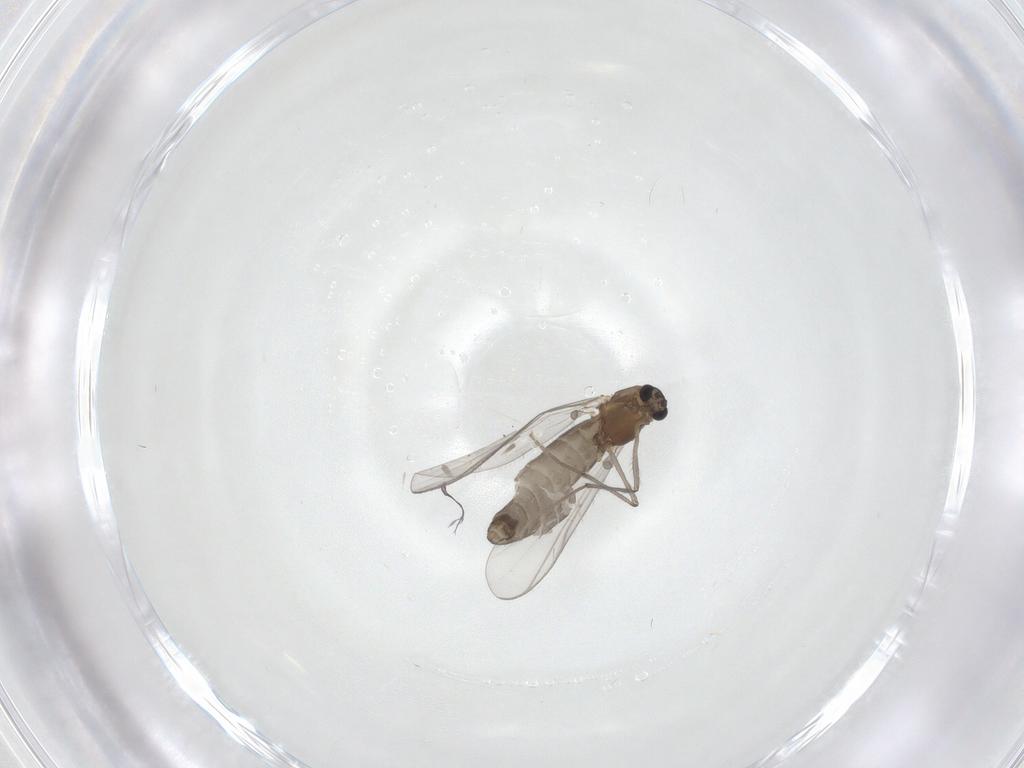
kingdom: Animalia
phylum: Arthropoda
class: Insecta
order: Diptera
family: Chironomidae
